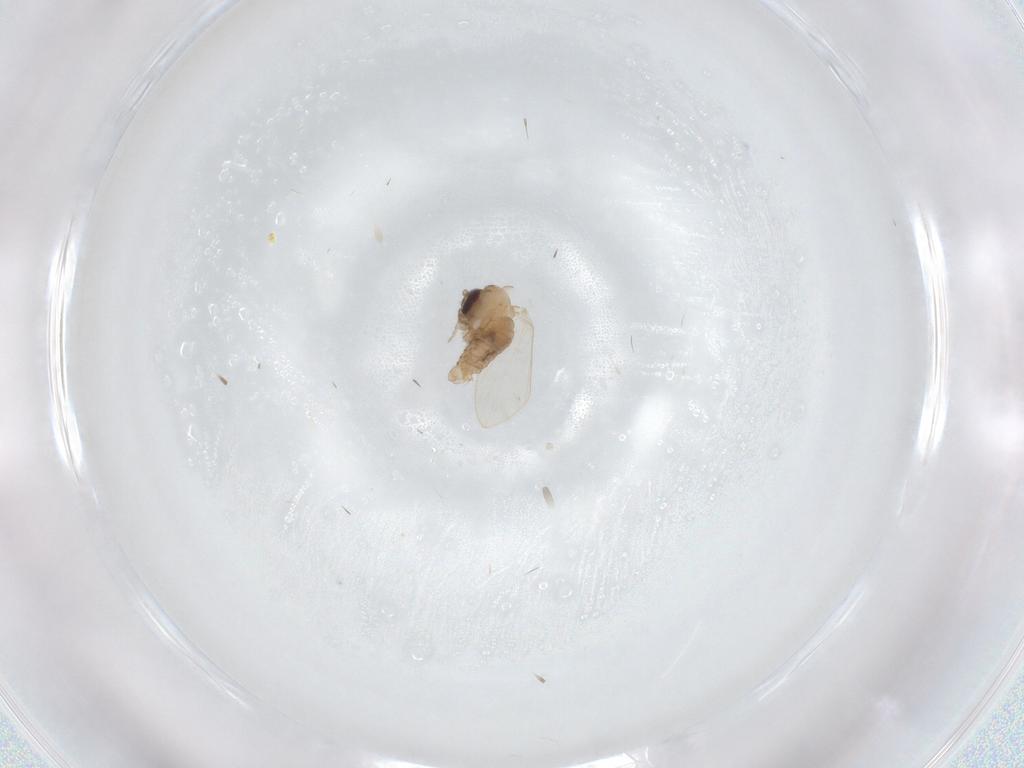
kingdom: Animalia
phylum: Arthropoda
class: Insecta
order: Diptera
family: Psychodidae
